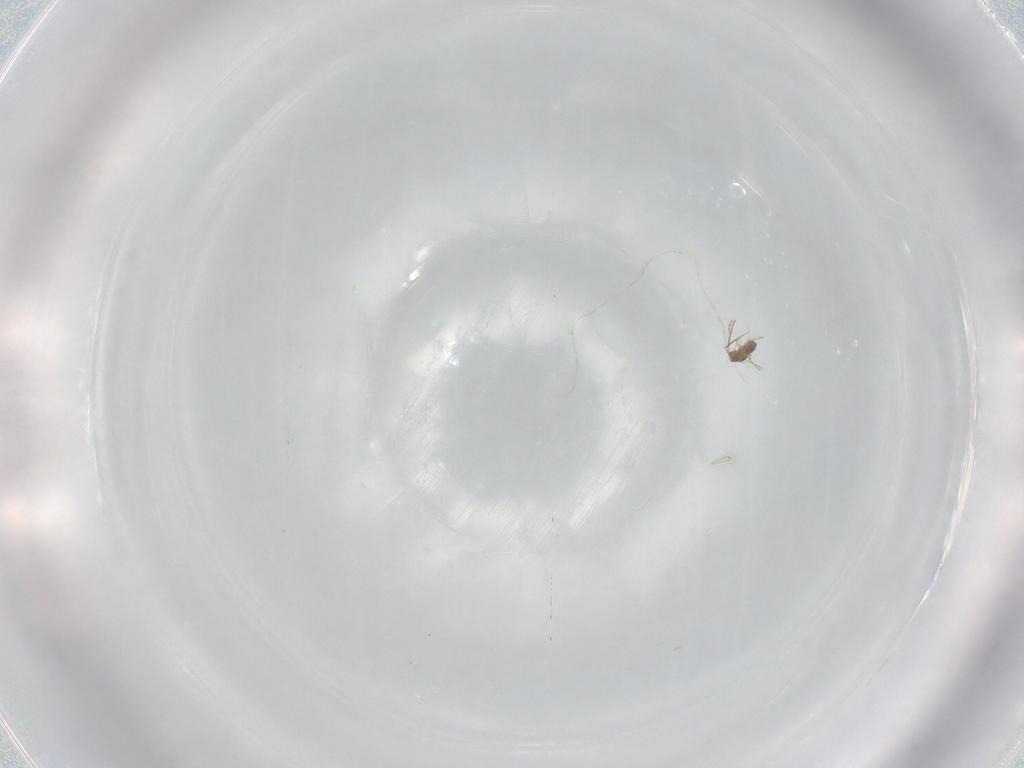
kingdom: Animalia
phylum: Arthropoda
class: Insecta
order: Hymenoptera
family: Mymaridae
